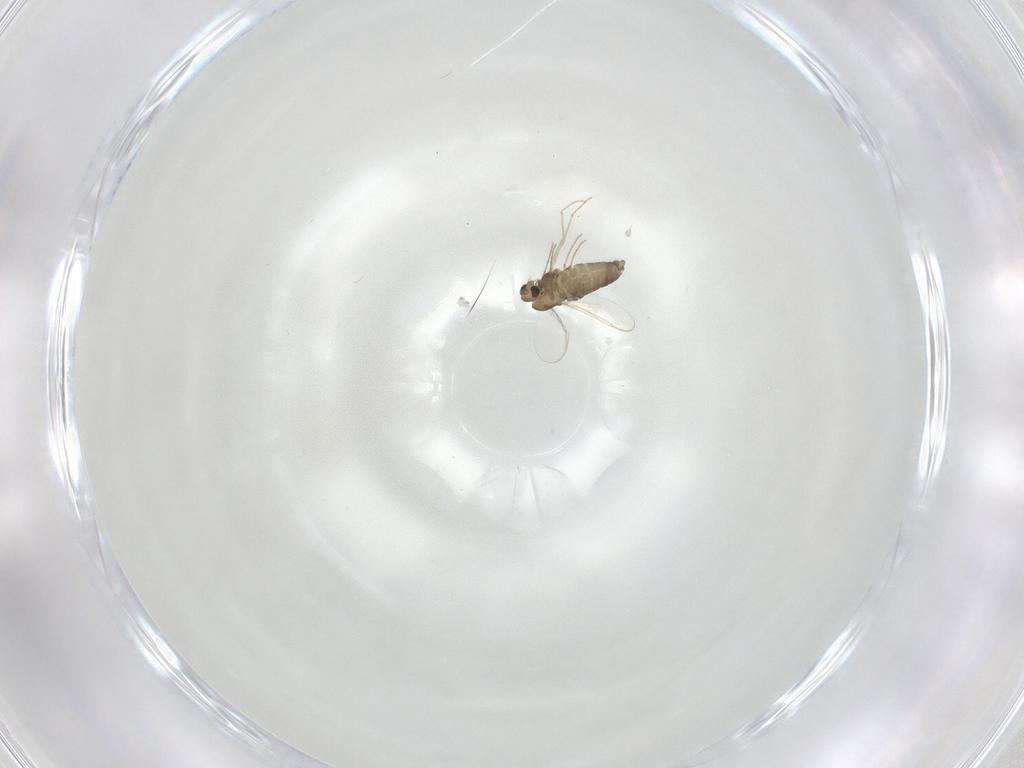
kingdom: Animalia
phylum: Arthropoda
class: Insecta
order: Diptera
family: Chironomidae
